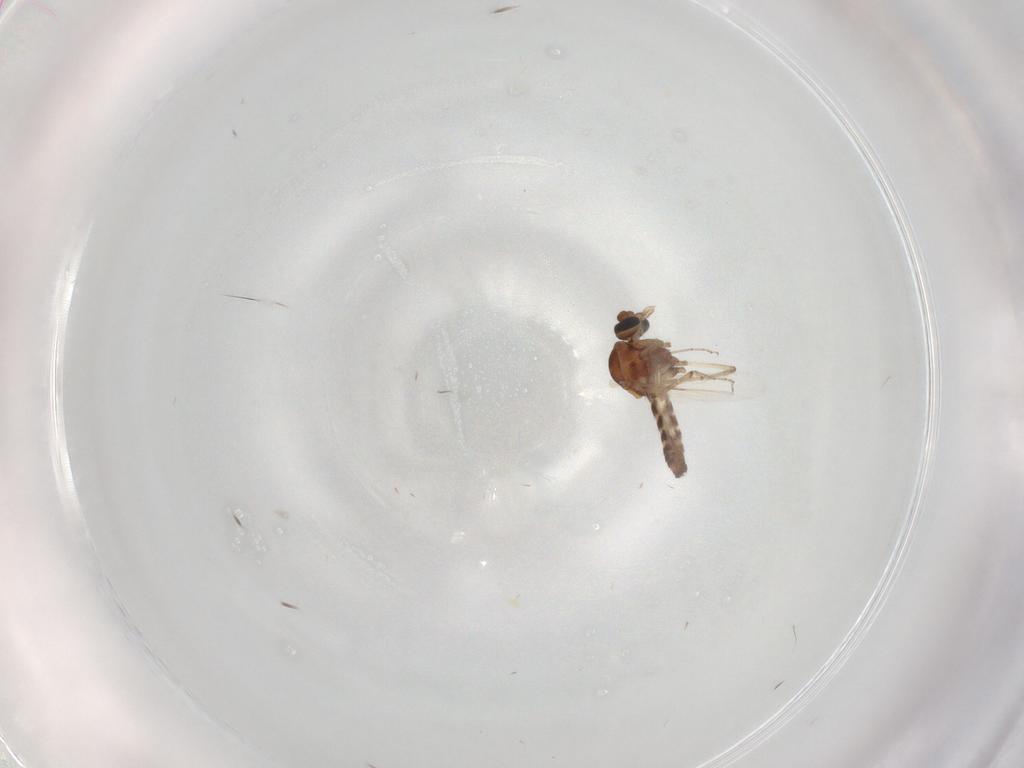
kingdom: Animalia
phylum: Arthropoda
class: Insecta
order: Diptera
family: Ceratopogonidae
